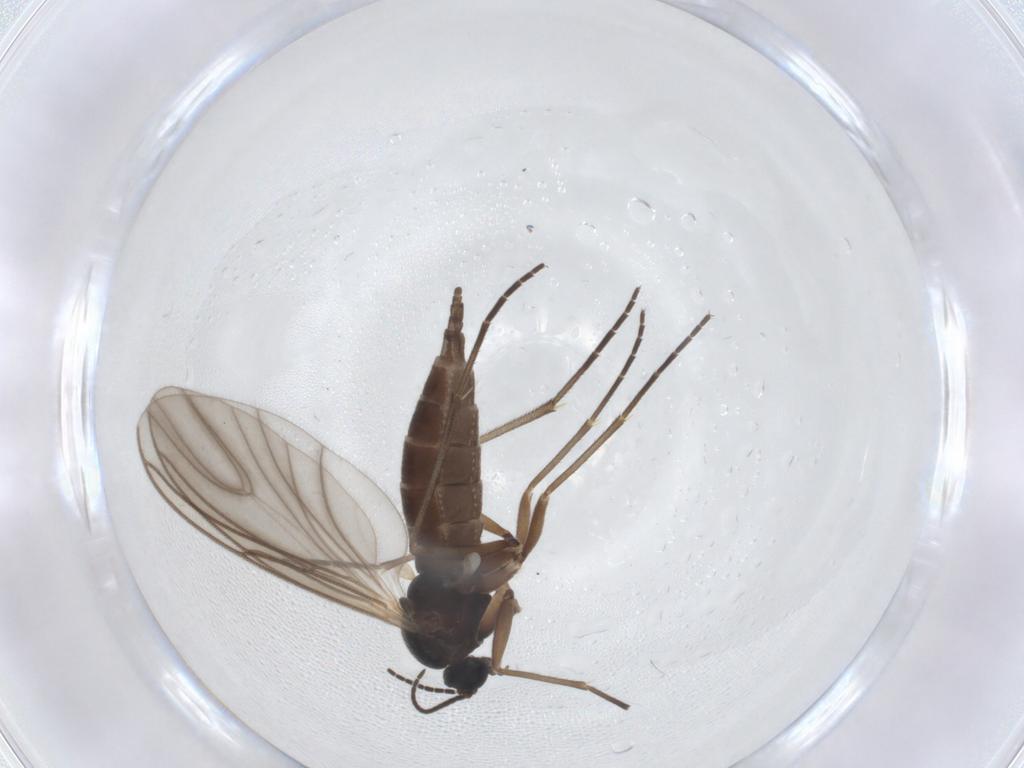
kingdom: Animalia
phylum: Arthropoda
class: Insecta
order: Diptera
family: Sciaridae
